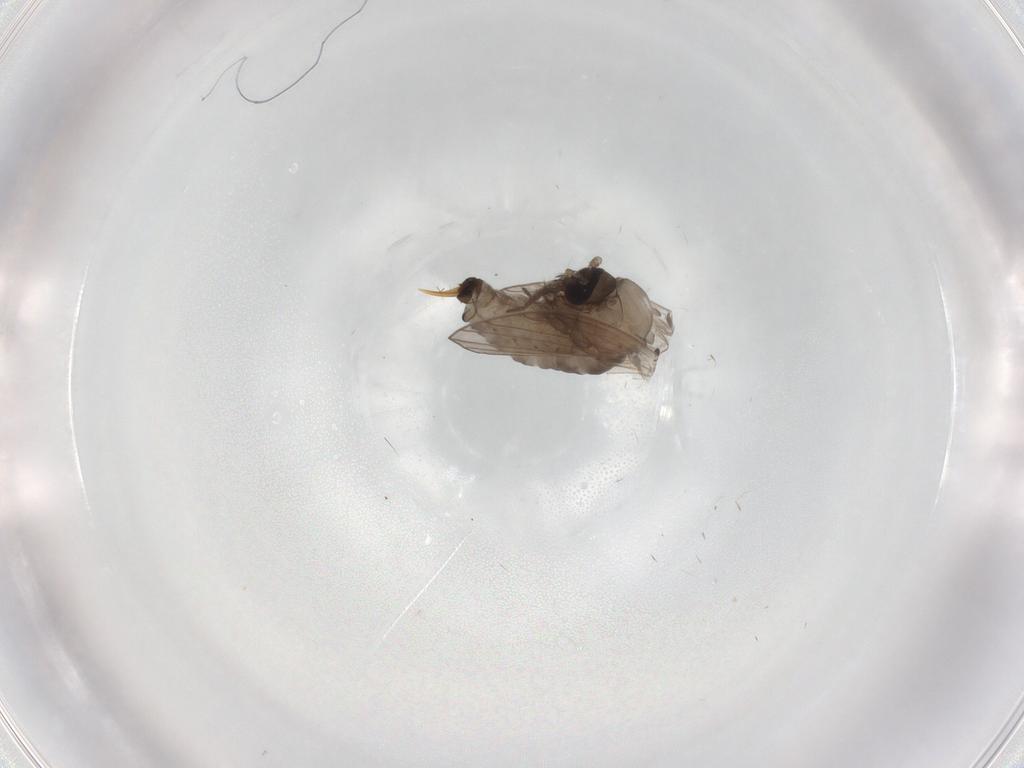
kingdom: Animalia
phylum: Arthropoda
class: Insecta
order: Diptera
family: Psychodidae
